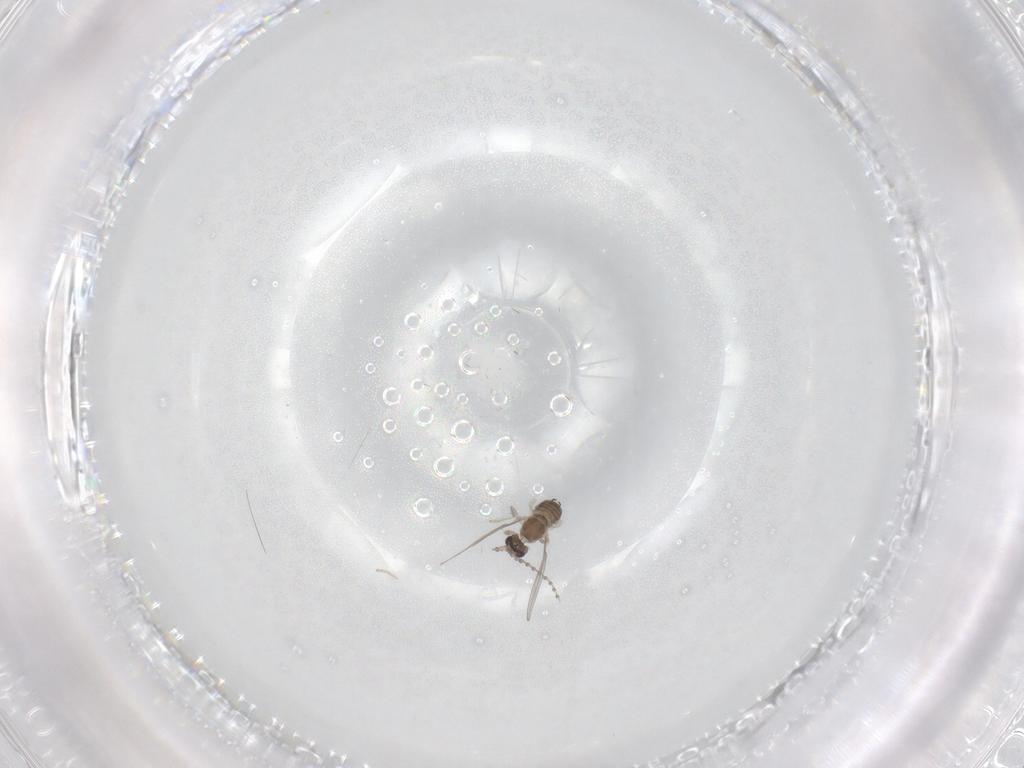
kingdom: Animalia
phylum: Arthropoda
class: Insecta
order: Diptera
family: Cecidomyiidae
